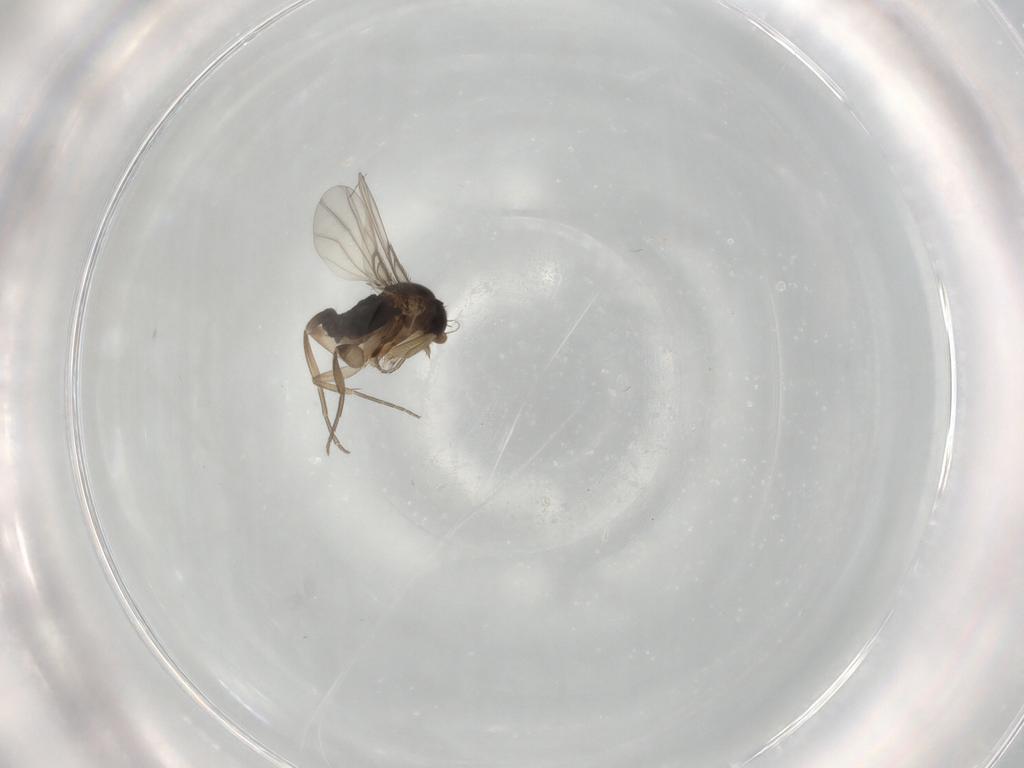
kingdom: Animalia
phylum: Arthropoda
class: Insecta
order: Diptera
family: Phoridae
